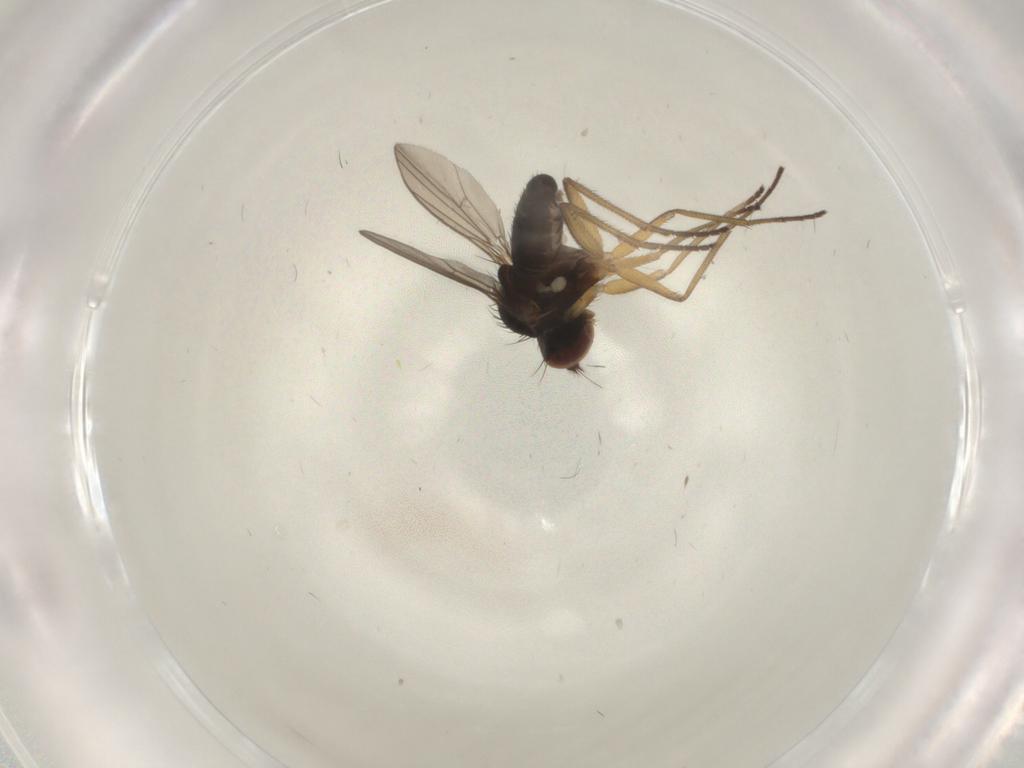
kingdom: Animalia
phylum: Arthropoda
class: Insecta
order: Diptera
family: Dolichopodidae
